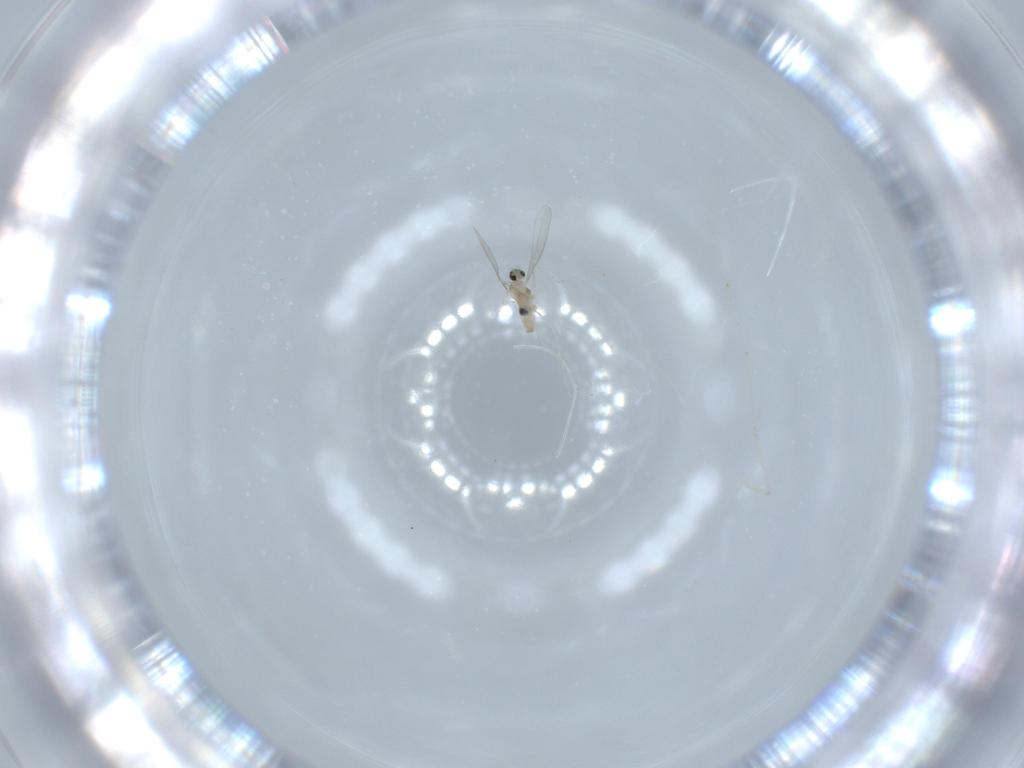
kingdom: Animalia
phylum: Arthropoda
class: Insecta
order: Diptera
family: Cecidomyiidae
